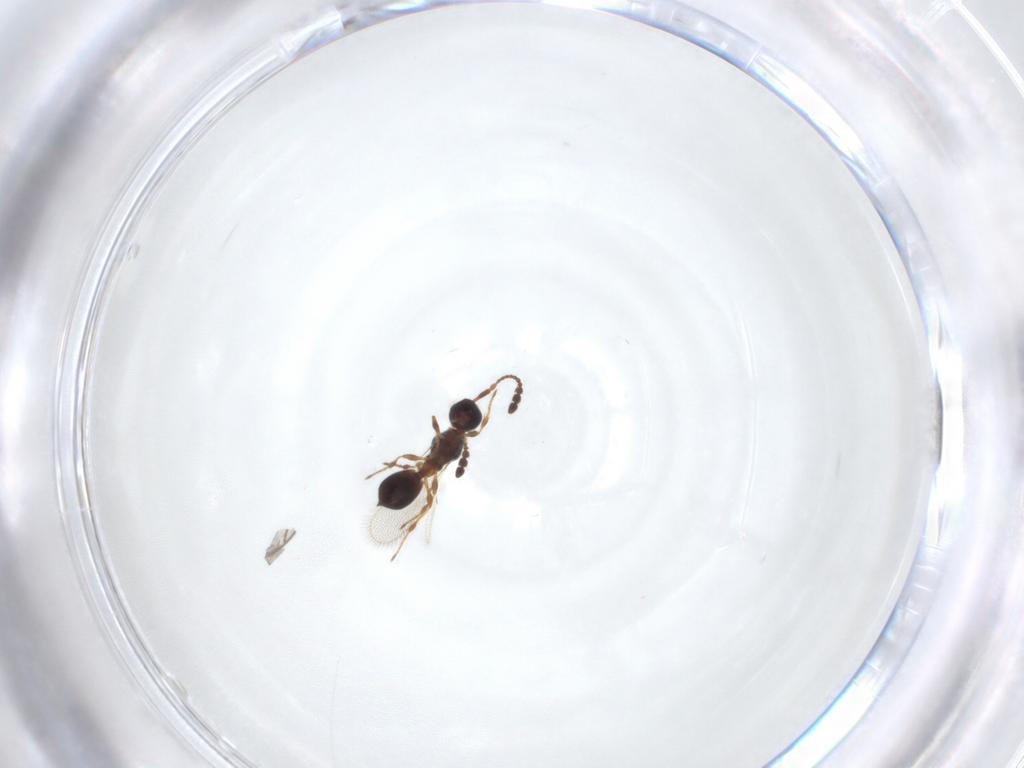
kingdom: Animalia
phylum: Arthropoda
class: Insecta
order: Hymenoptera
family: Diapriidae
